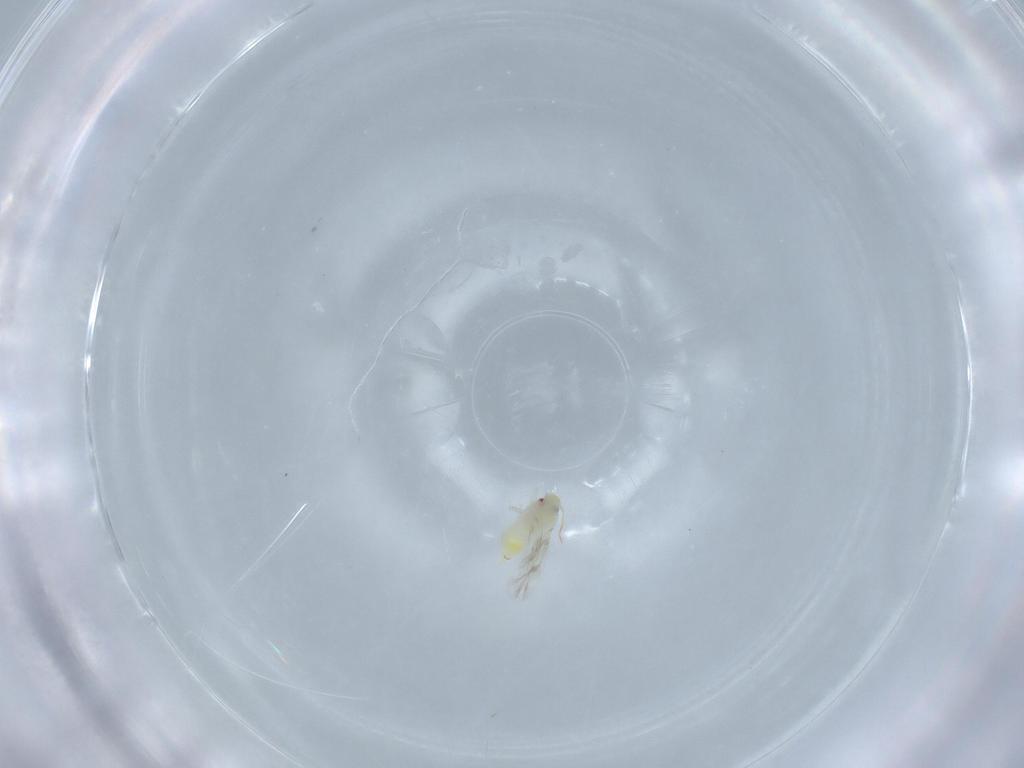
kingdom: Animalia
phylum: Arthropoda
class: Insecta
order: Hemiptera
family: Aleyrodidae
